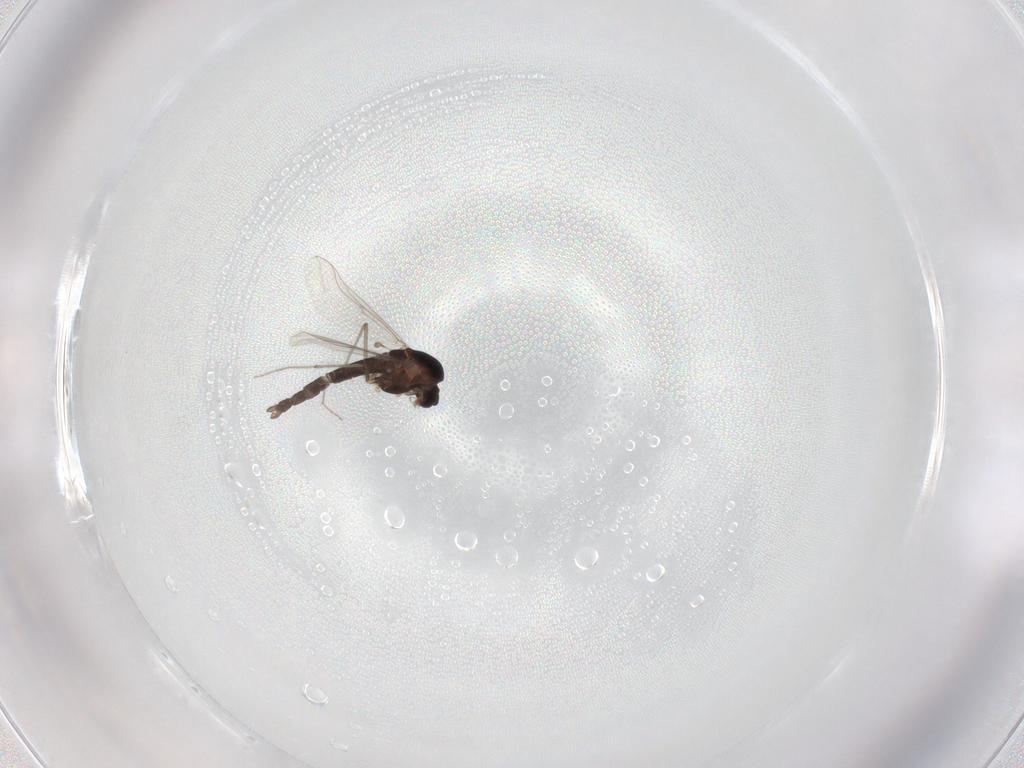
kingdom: Animalia
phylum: Arthropoda
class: Insecta
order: Diptera
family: Chironomidae
